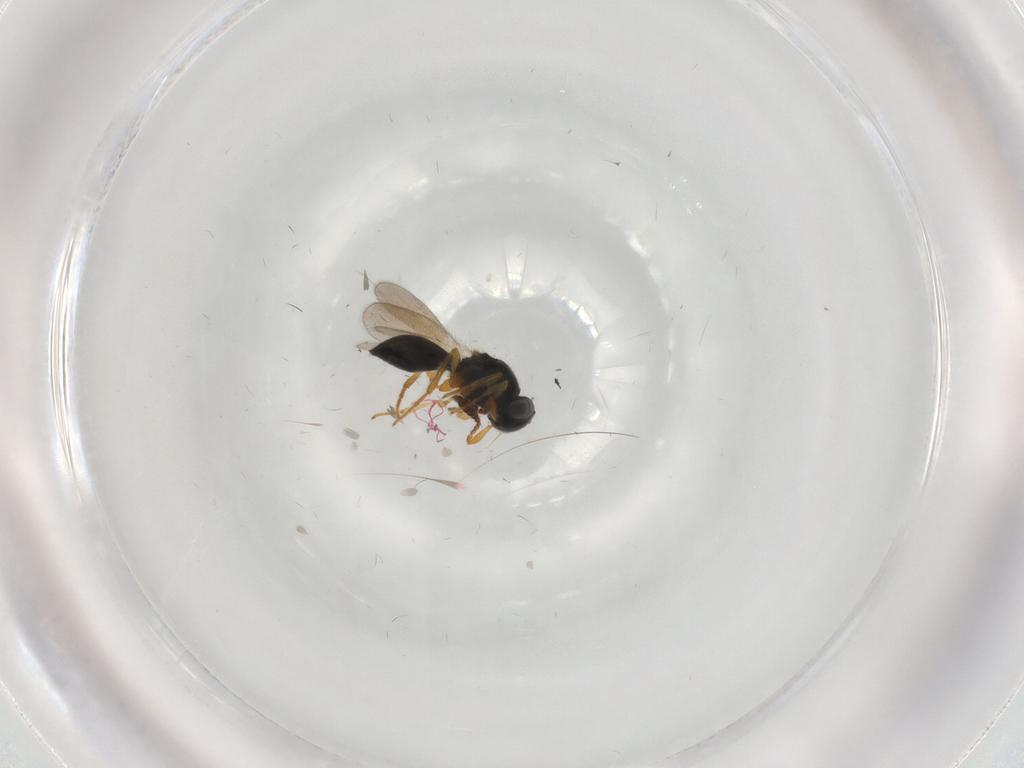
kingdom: Animalia
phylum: Arthropoda
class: Insecta
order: Hymenoptera
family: Platygastridae
